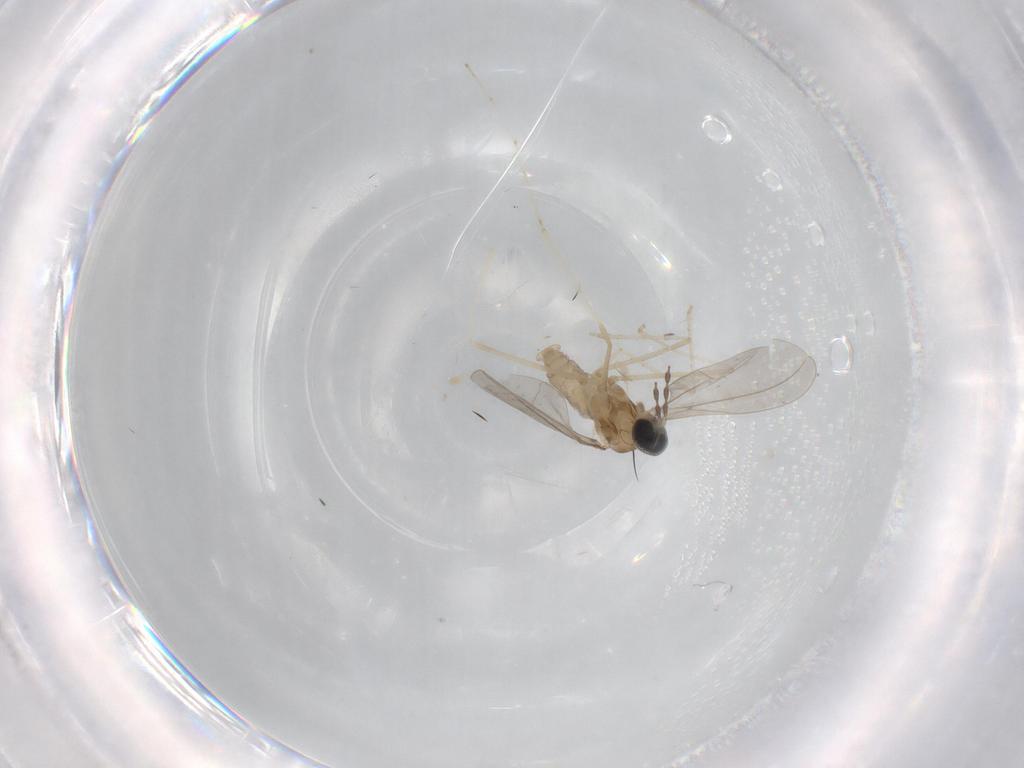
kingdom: Animalia
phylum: Arthropoda
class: Insecta
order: Diptera
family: Cecidomyiidae
